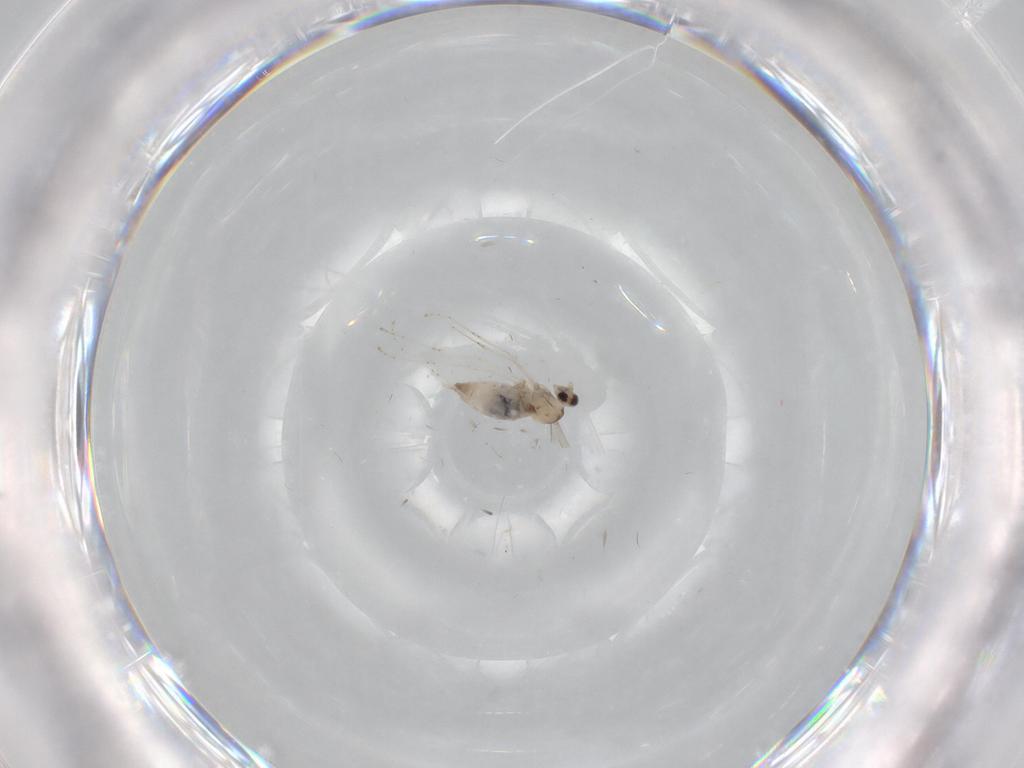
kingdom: Animalia
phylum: Arthropoda
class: Insecta
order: Diptera
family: Cecidomyiidae
